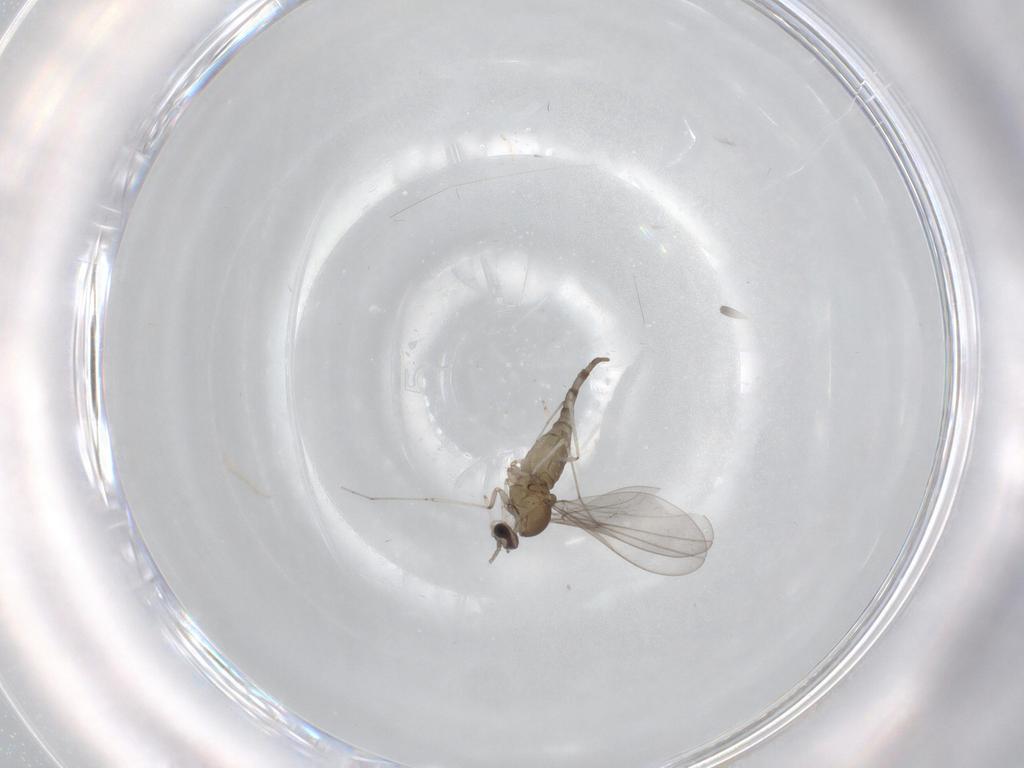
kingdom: Animalia
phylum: Arthropoda
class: Insecta
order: Diptera
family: Cecidomyiidae
